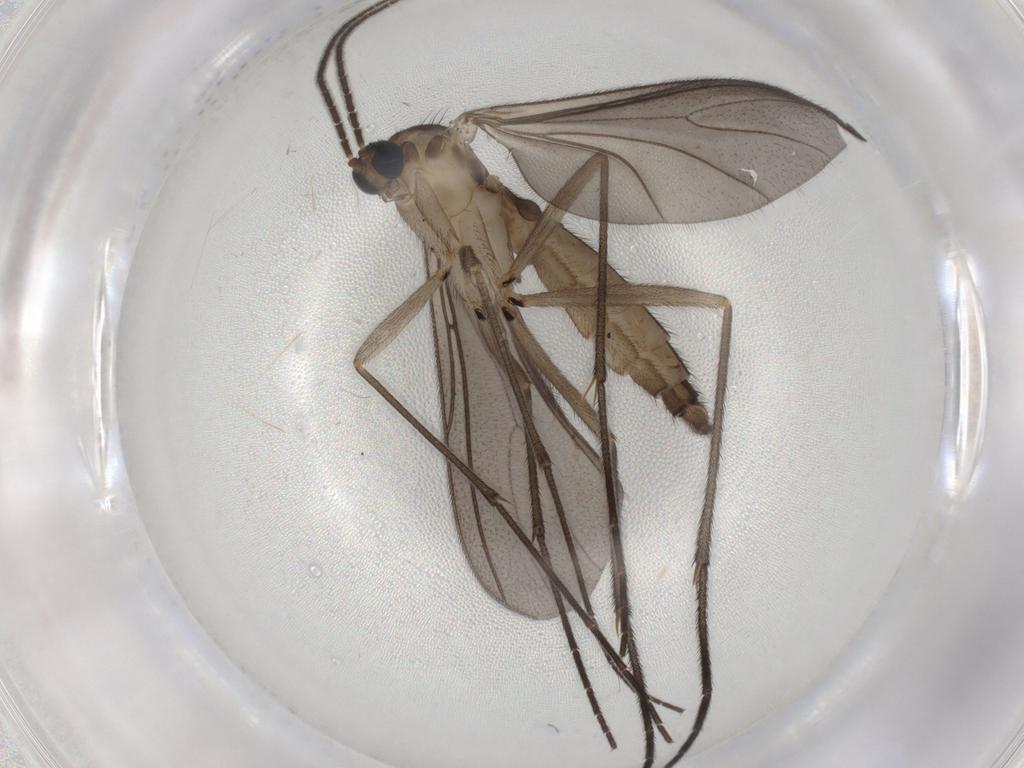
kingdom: Animalia
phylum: Arthropoda
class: Insecta
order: Diptera
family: Sciaridae
